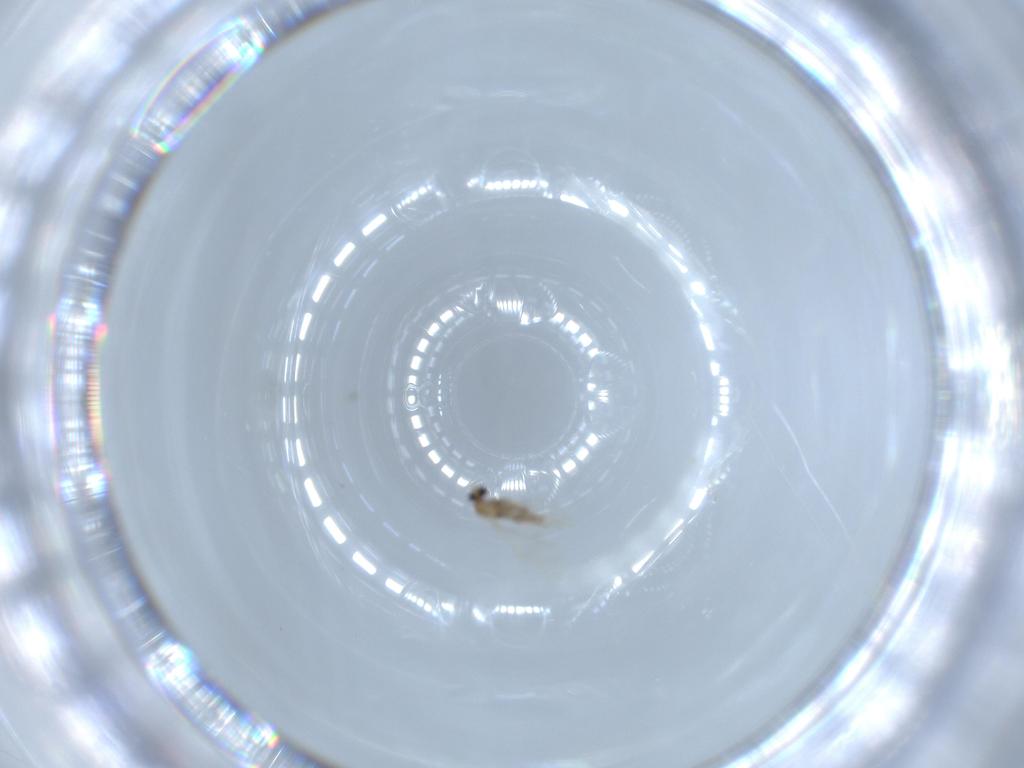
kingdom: Animalia
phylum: Arthropoda
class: Insecta
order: Diptera
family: Cecidomyiidae
